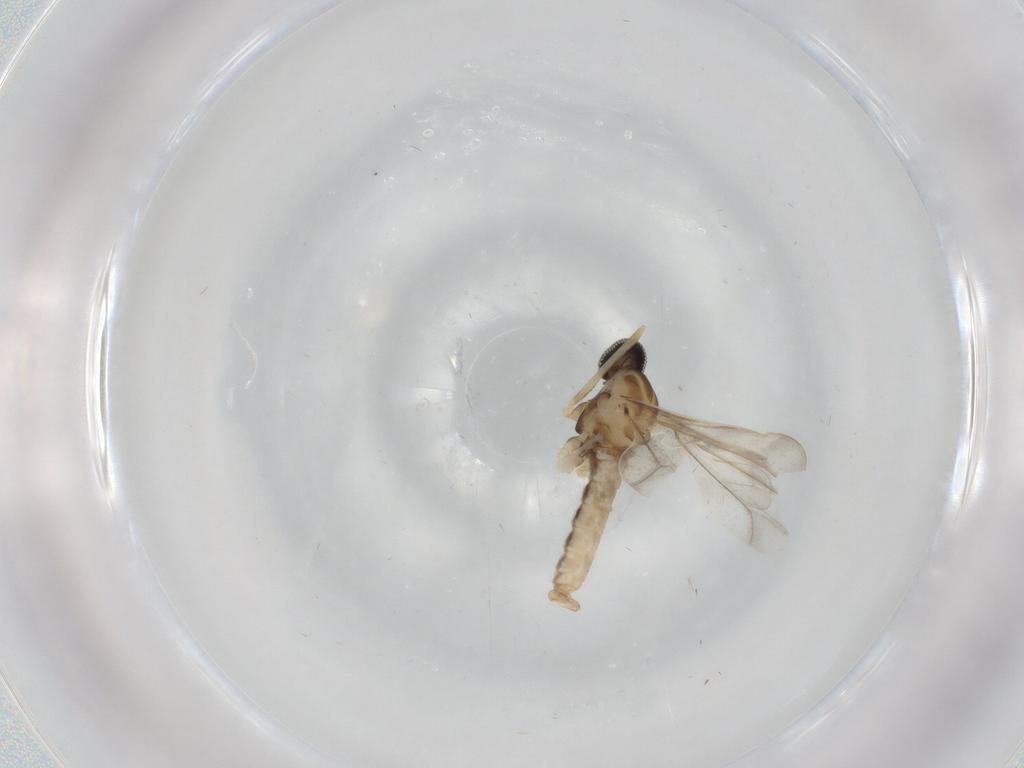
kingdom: Animalia
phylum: Arthropoda
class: Insecta
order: Diptera
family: Cecidomyiidae
